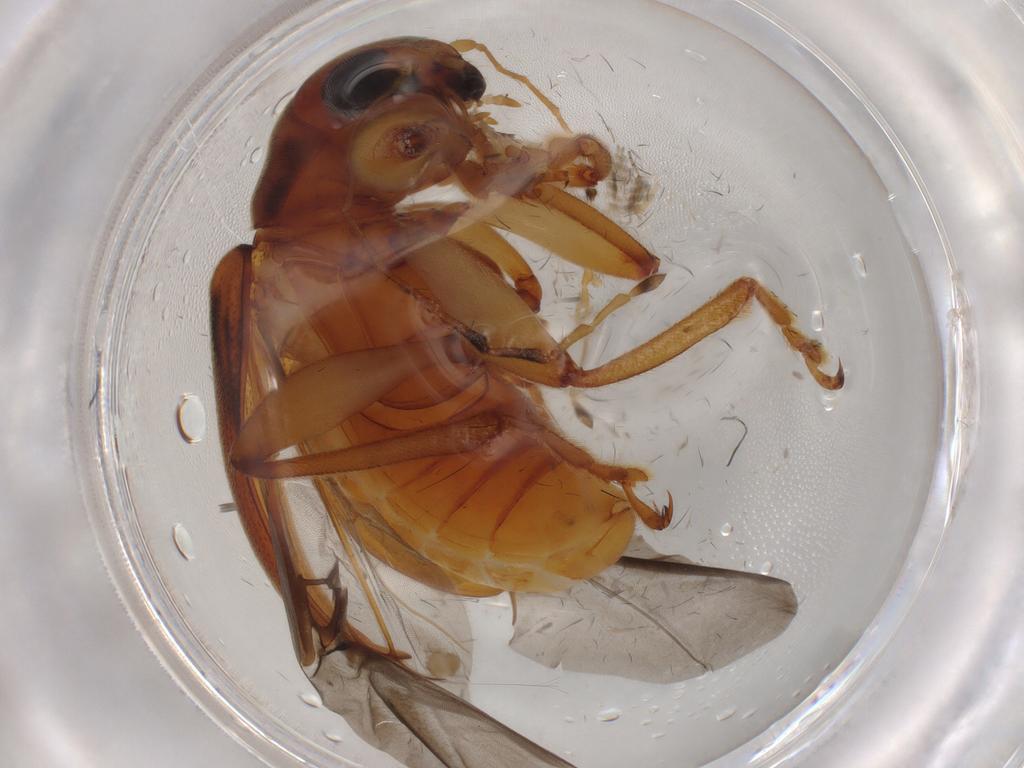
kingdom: Animalia
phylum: Arthropoda
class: Insecta
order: Coleoptera
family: Chrysomelidae
